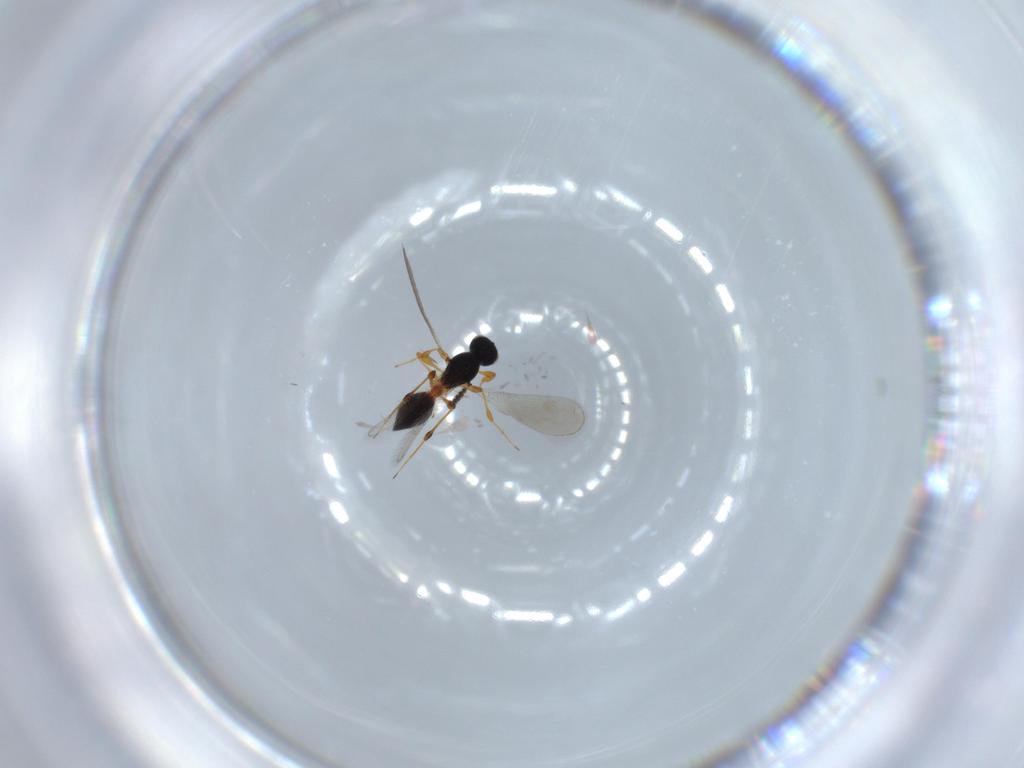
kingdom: Animalia
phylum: Arthropoda
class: Insecta
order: Hymenoptera
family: Platygastridae
